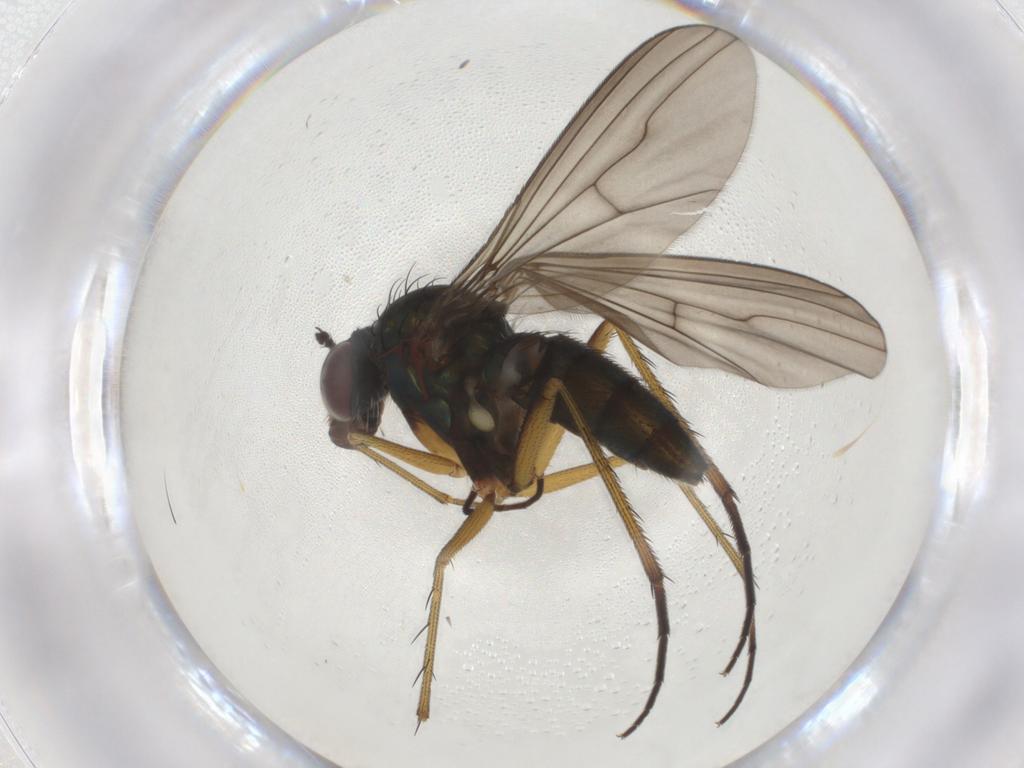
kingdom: Animalia
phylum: Arthropoda
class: Insecta
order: Diptera
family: Dolichopodidae
